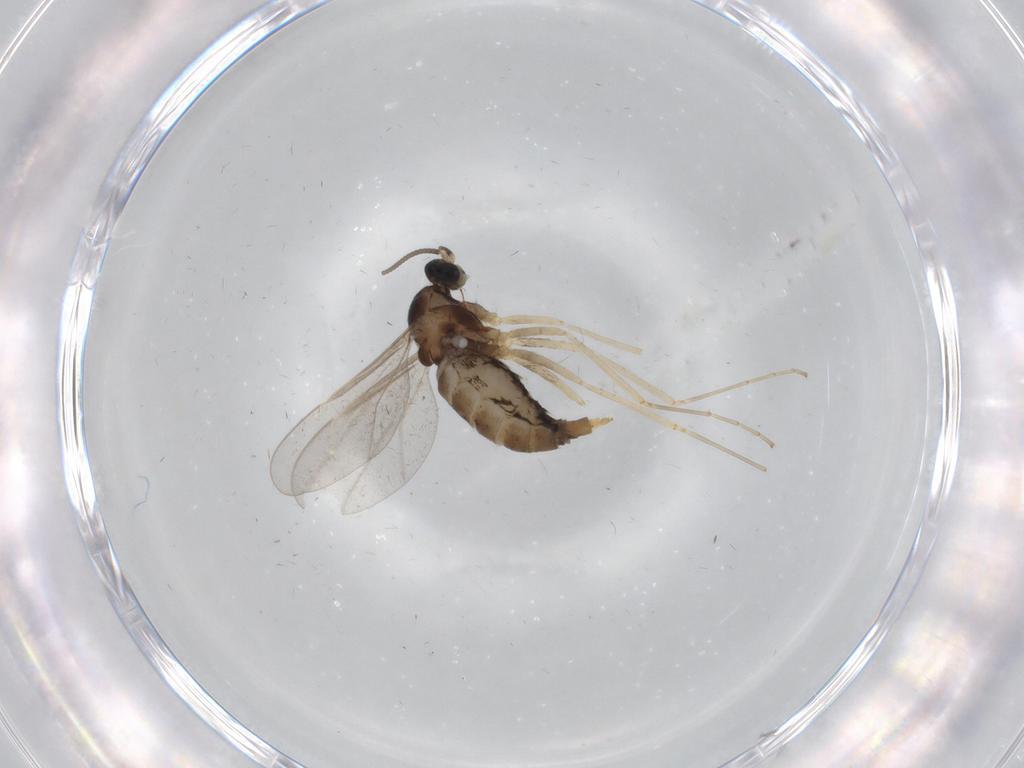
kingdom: Animalia
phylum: Arthropoda
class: Insecta
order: Diptera
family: Cecidomyiidae
